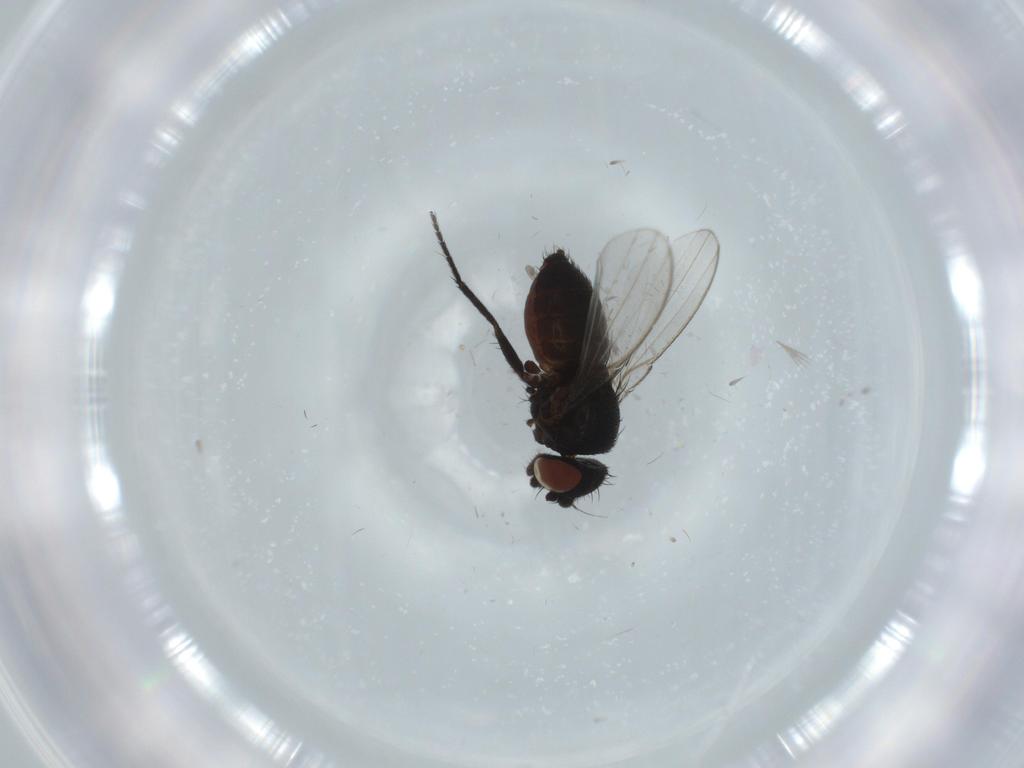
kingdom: Animalia
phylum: Arthropoda
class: Insecta
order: Diptera
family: Milichiidae
